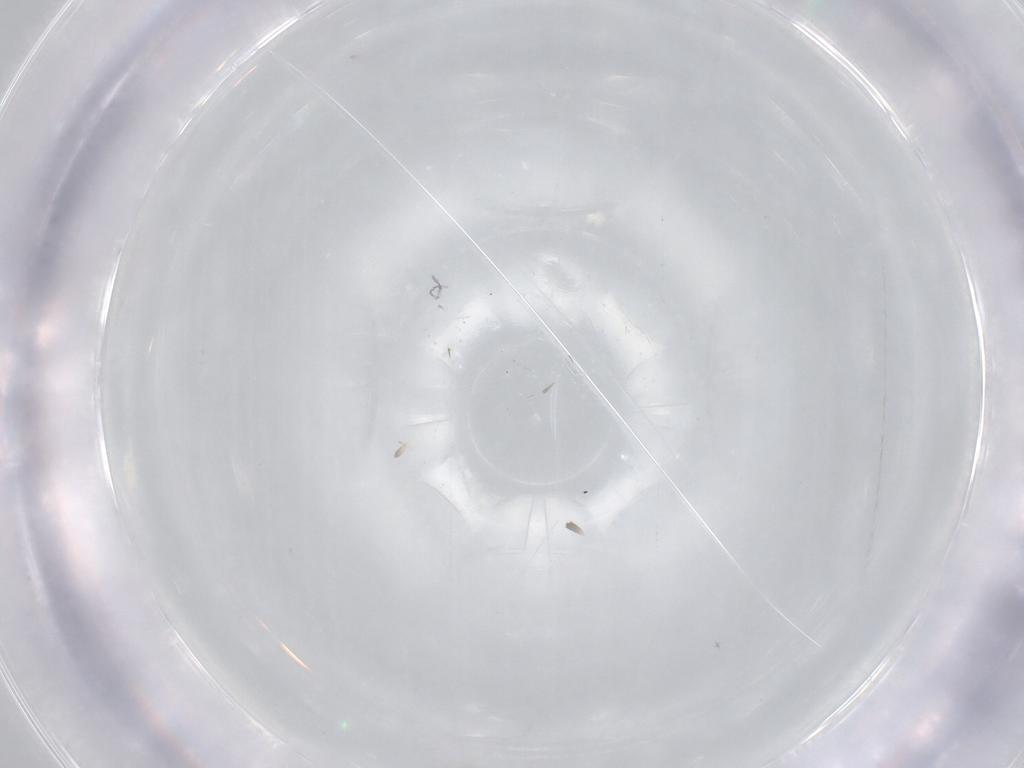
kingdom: Animalia
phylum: Arthropoda
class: Insecta
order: Diptera
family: Chironomidae
